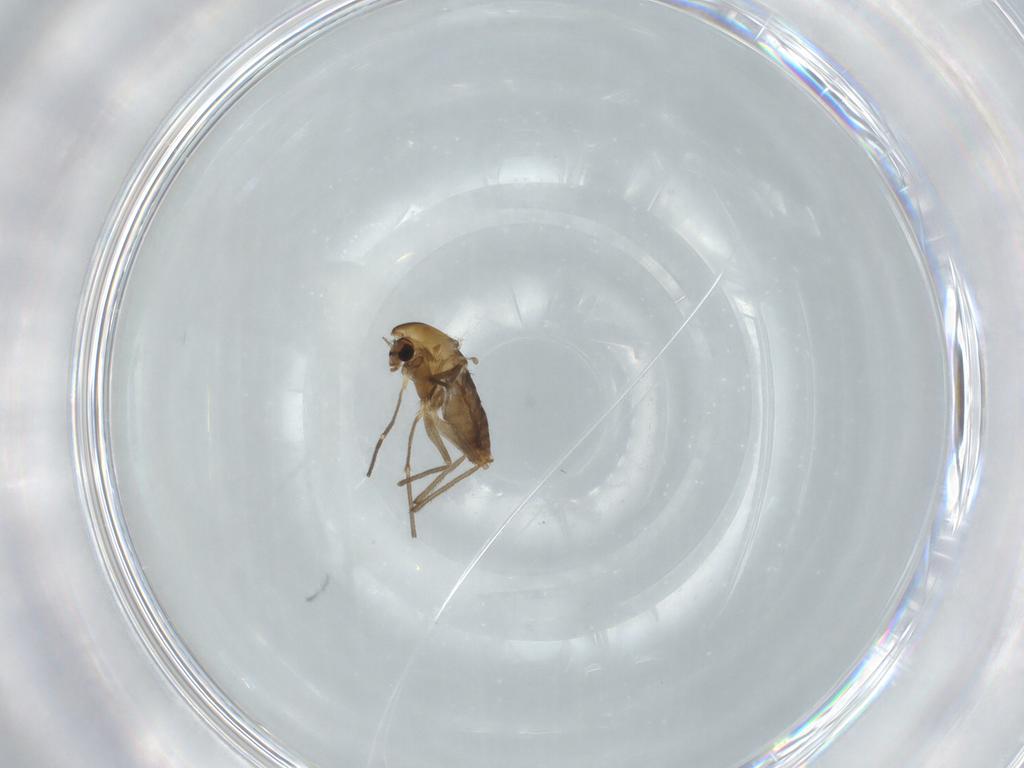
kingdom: Animalia
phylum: Arthropoda
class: Insecta
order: Diptera
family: Chironomidae
